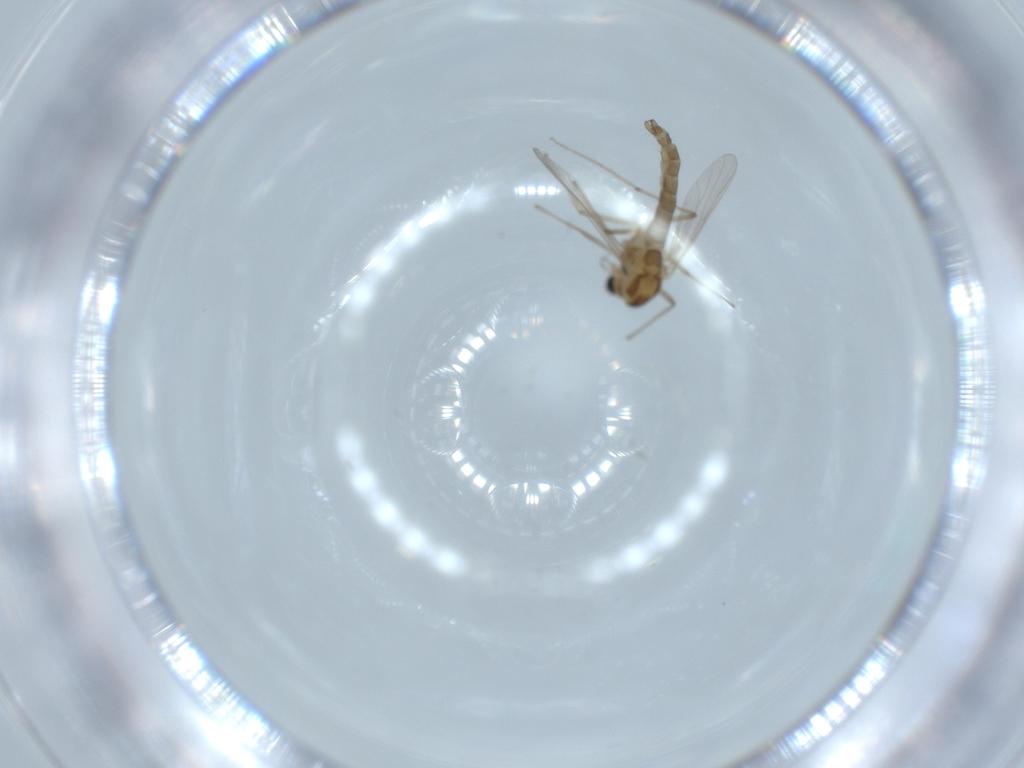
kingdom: Animalia
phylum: Arthropoda
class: Insecta
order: Diptera
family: Chironomidae
